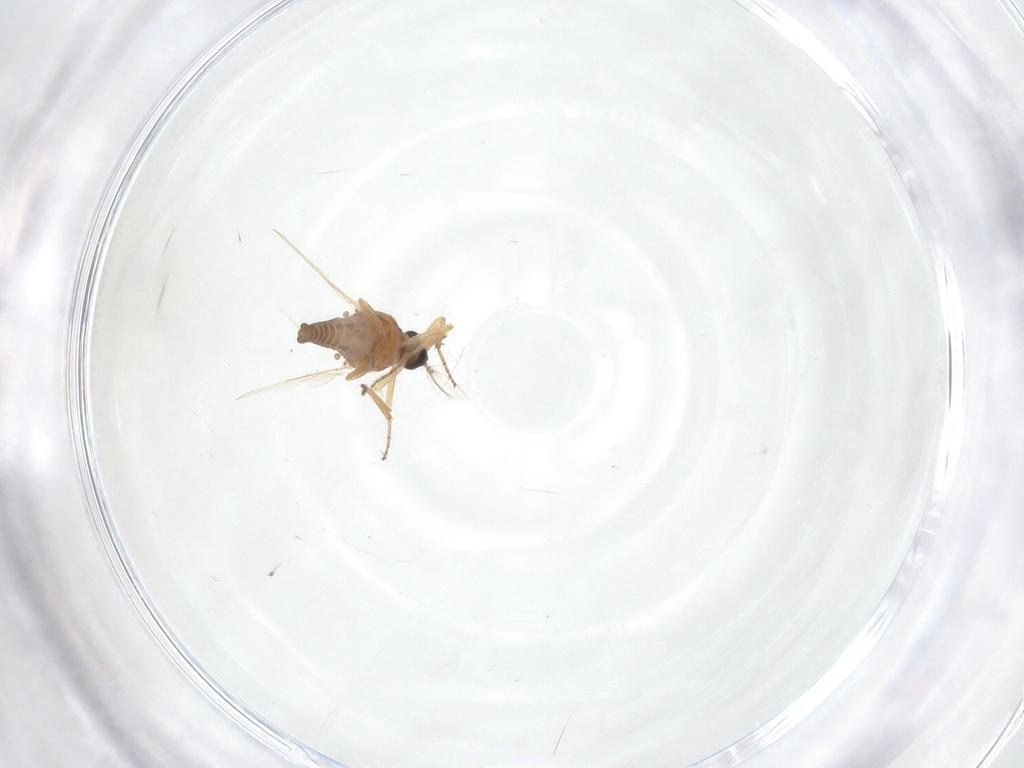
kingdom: Animalia
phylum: Arthropoda
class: Insecta
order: Diptera
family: Ceratopogonidae
